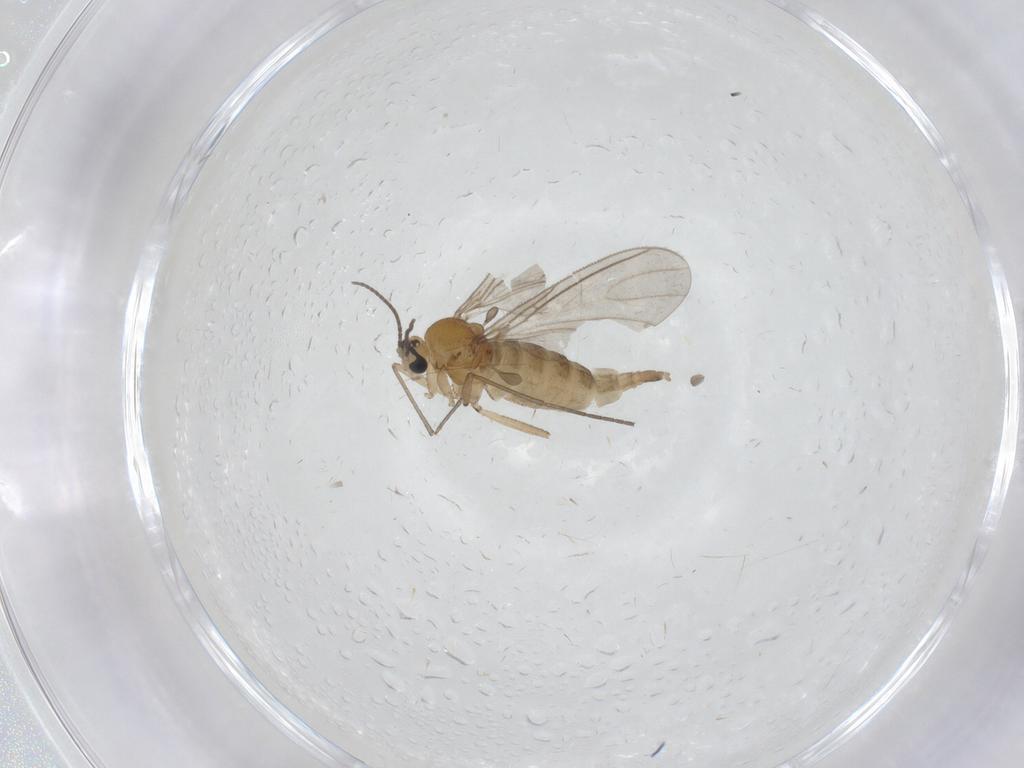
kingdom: Animalia
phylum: Arthropoda
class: Insecta
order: Diptera
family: Sciaridae
